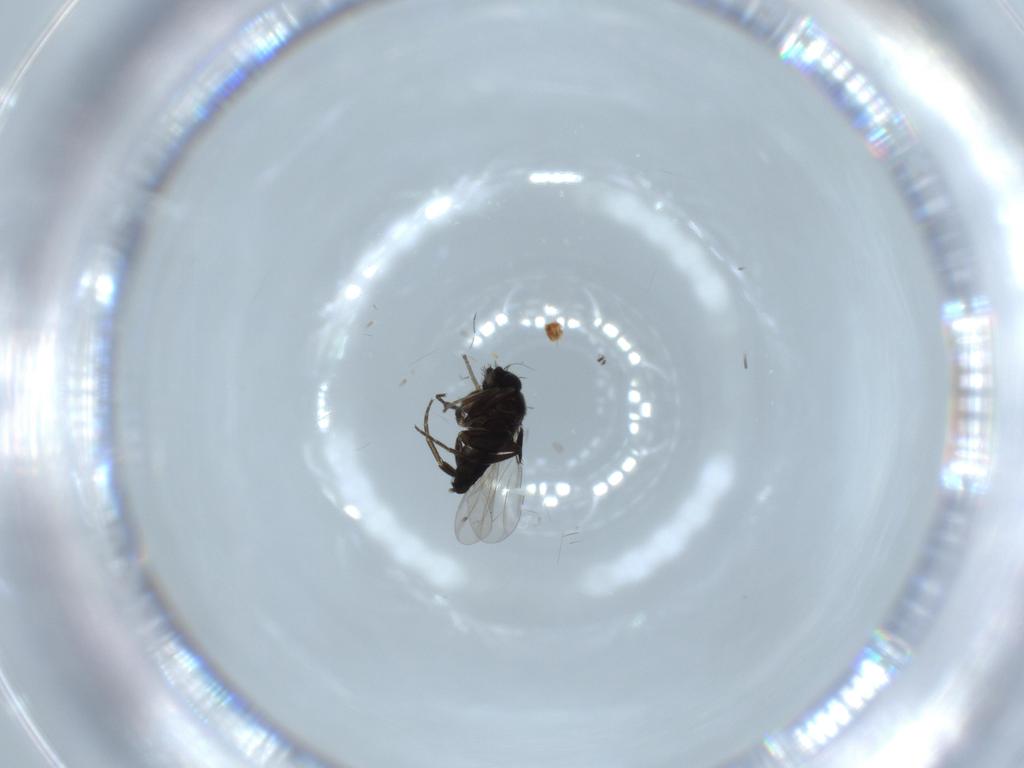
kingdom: Animalia
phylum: Arthropoda
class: Insecta
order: Diptera
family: Phoridae
